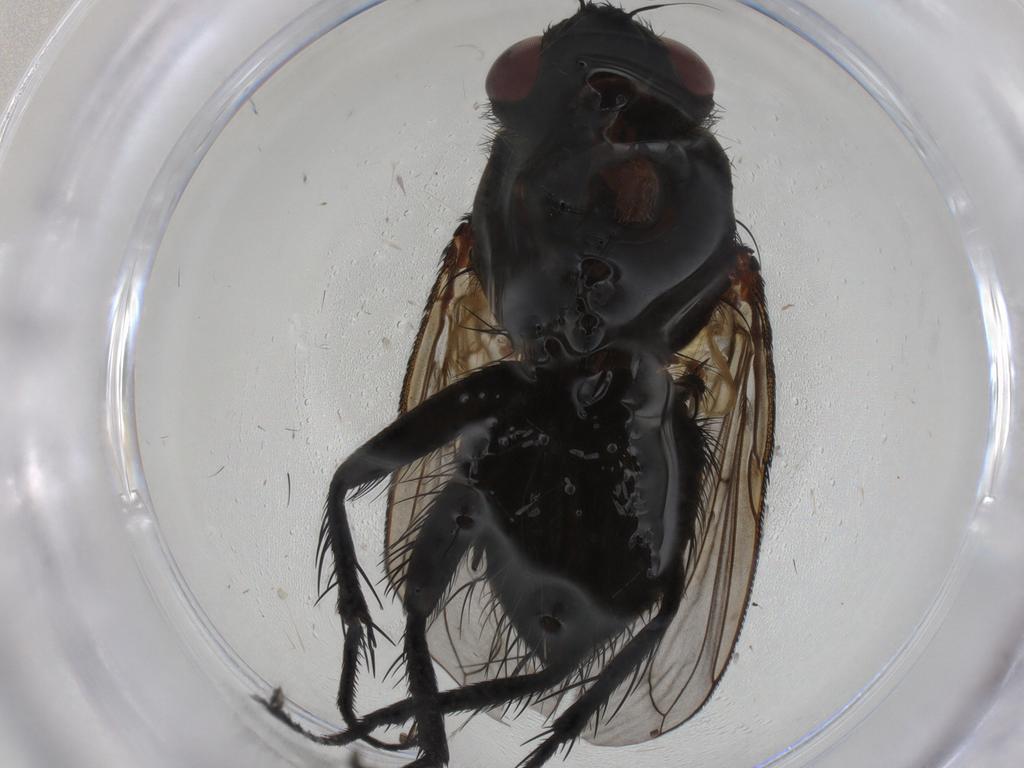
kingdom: Animalia
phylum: Arthropoda
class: Insecta
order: Diptera
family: Tachinidae
